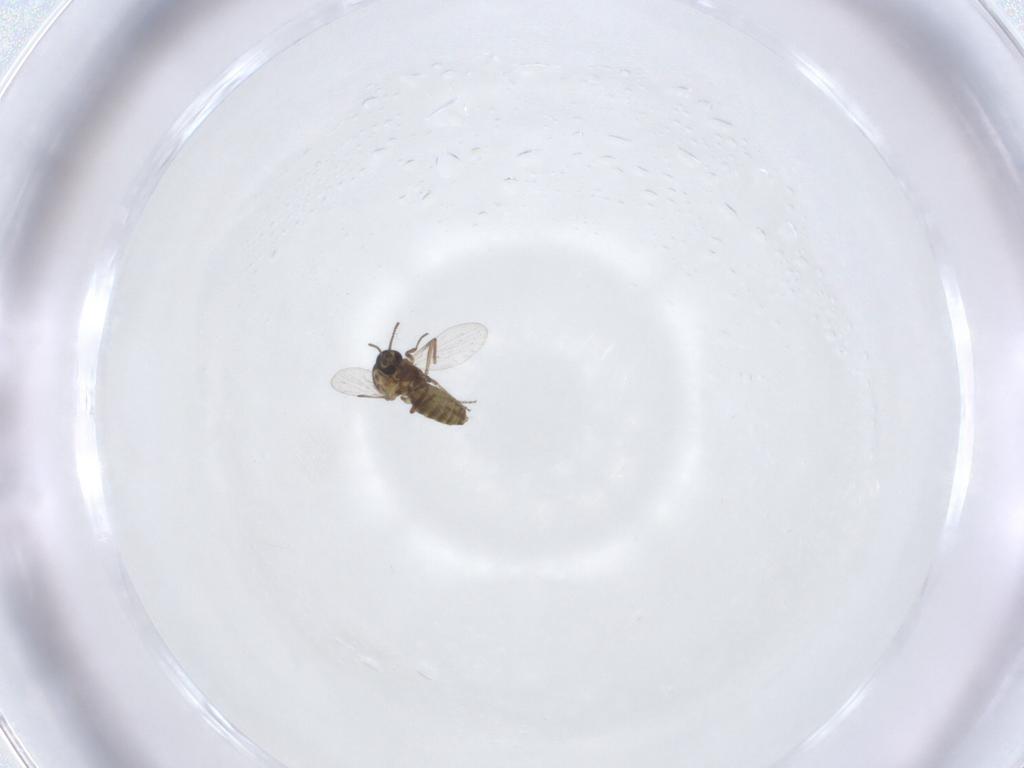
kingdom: Animalia
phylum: Arthropoda
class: Insecta
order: Diptera
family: Ceratopogonidae
